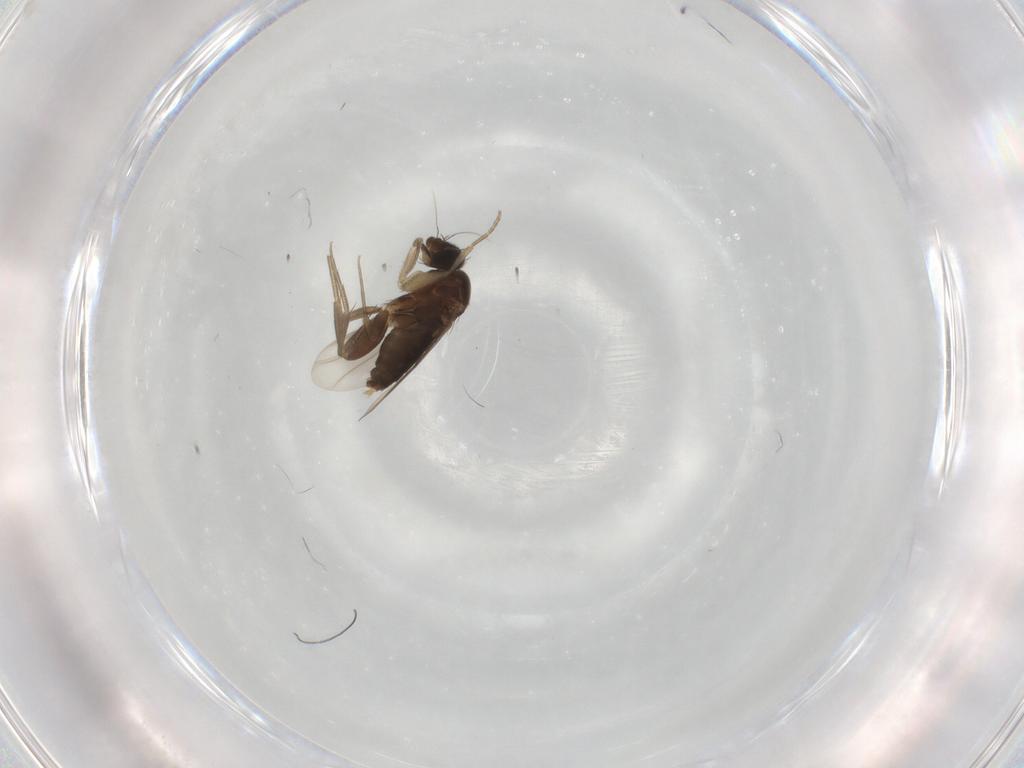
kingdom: Animalia
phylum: Arthropoda
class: Insecta
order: Diptera
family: Phoridae
